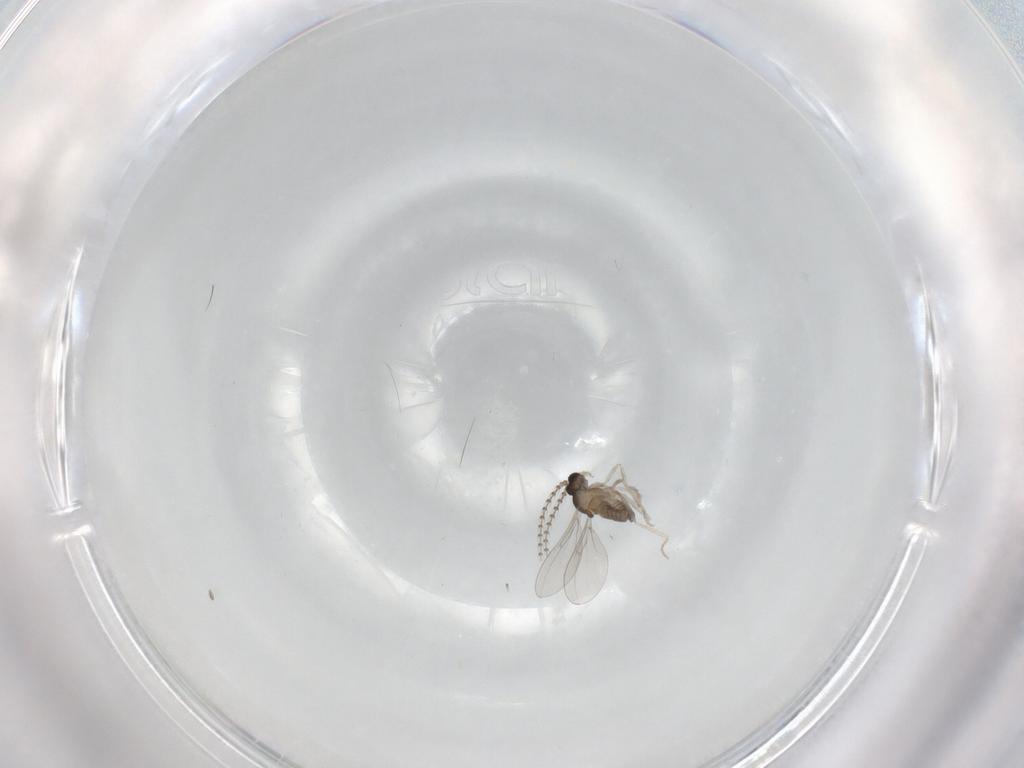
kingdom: Animalia
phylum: Arthropoda
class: Insecta
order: Diptera
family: Cecidomyiidae
